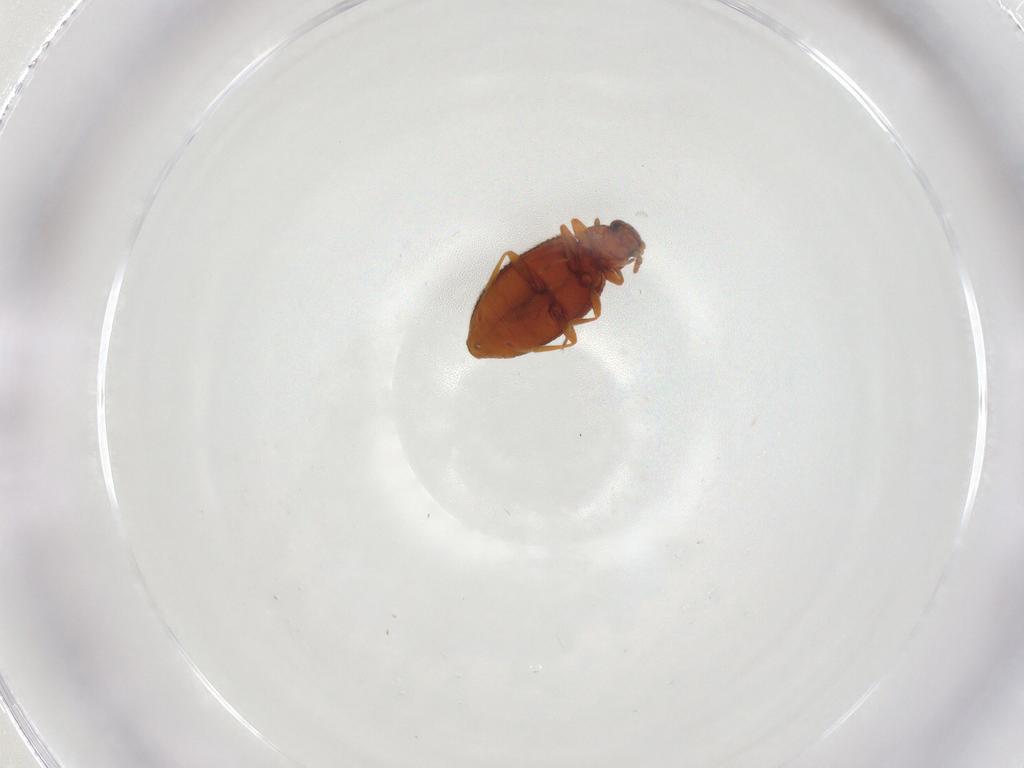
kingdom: Animalia
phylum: Arthropoda
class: Insecta
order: Coleoptera
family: Latridiidae
